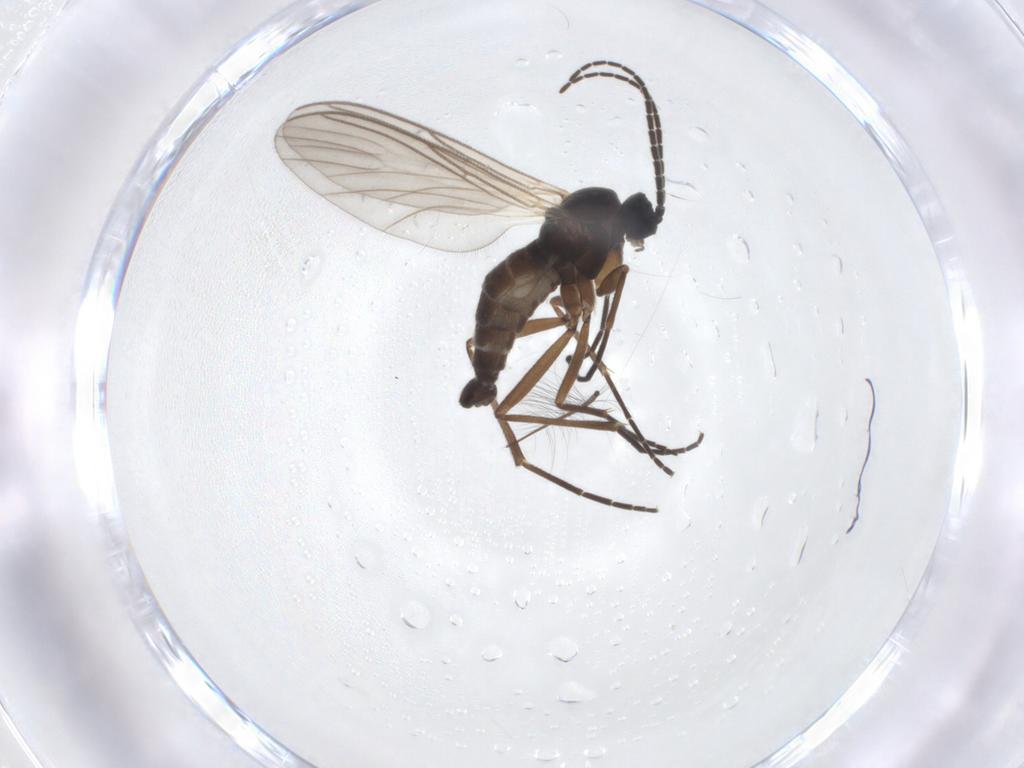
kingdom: Animalia
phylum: Arthropoda
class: Insecta
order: Diptera
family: Sciaridae
